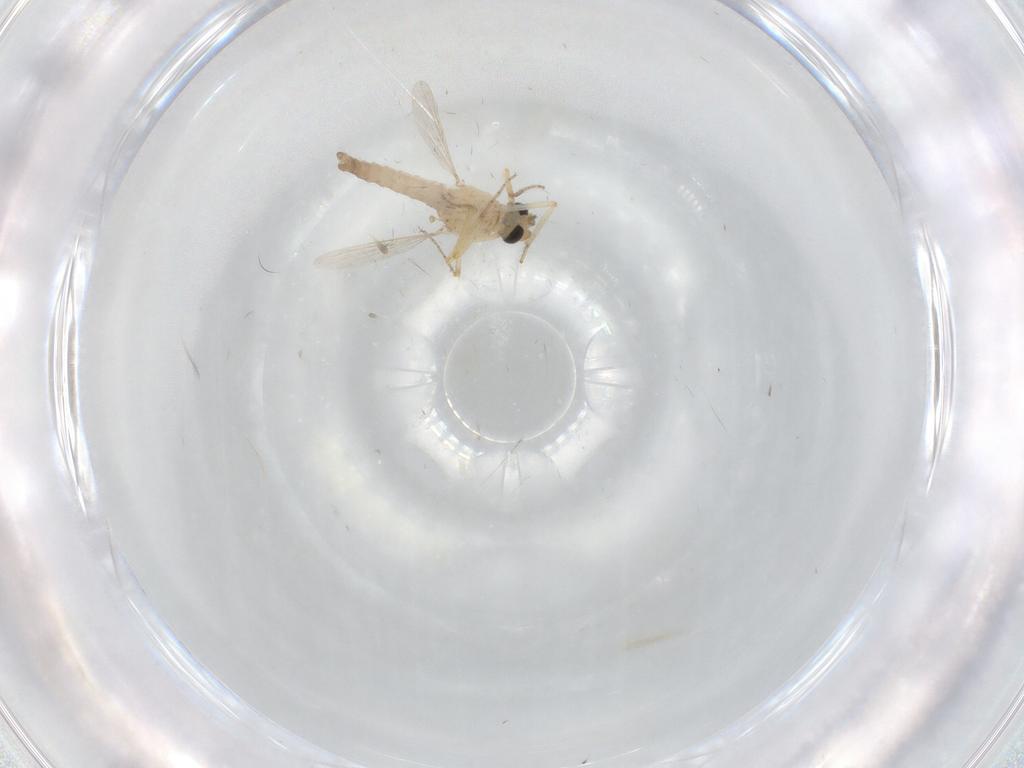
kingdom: Animalia
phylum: Arthropoda
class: Insecta
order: Diptera
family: Ceratopogonidae
